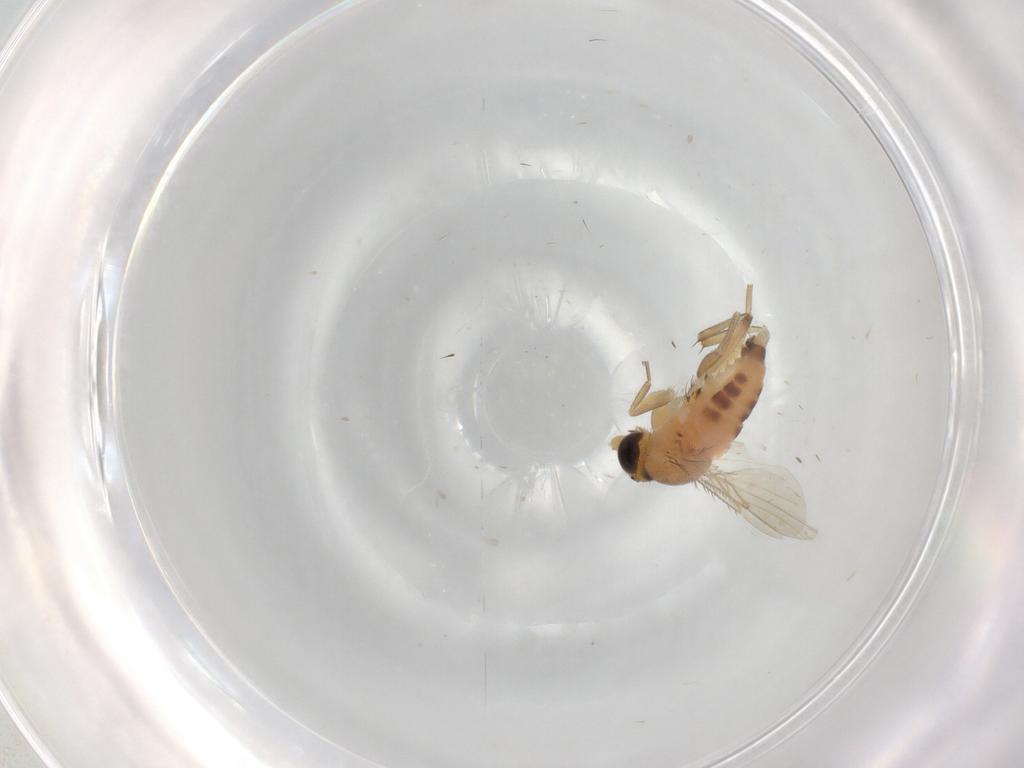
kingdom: Animalia
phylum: Arthropoda
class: Insecta
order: Diptera
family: Phoridae
